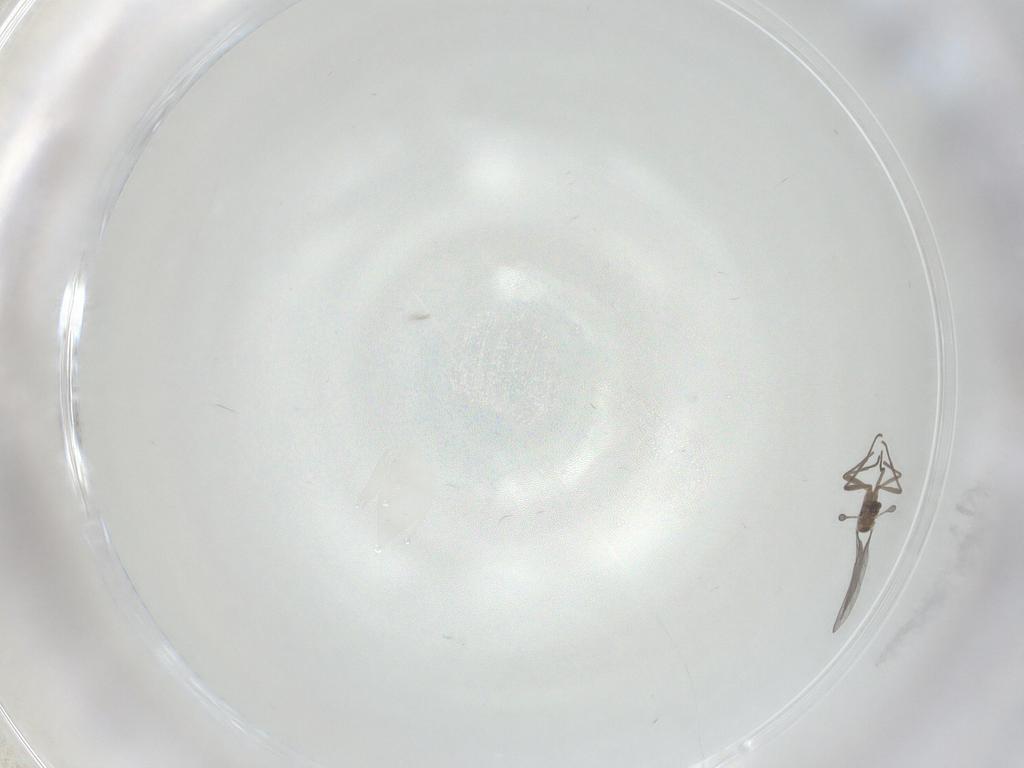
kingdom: Animalia
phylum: Arthropoda
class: Insecta
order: Diptera
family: Sciaridae
